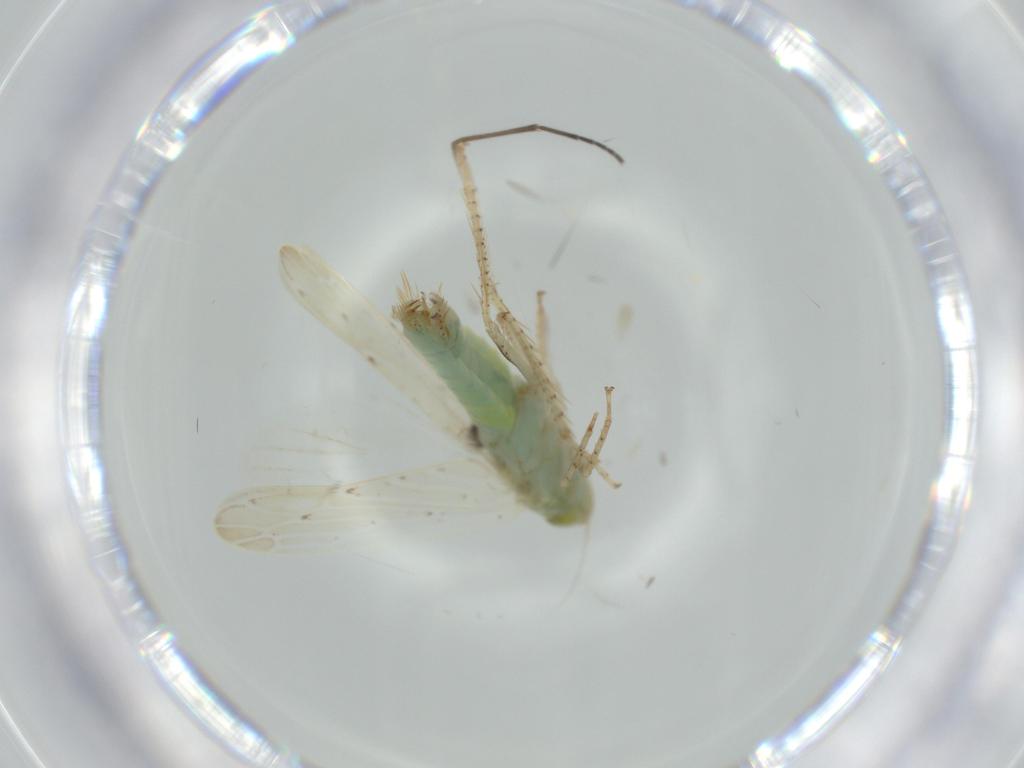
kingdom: Animalia
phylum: Arthropoda
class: Insecta
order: Hemiptera
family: Cicadellidae
